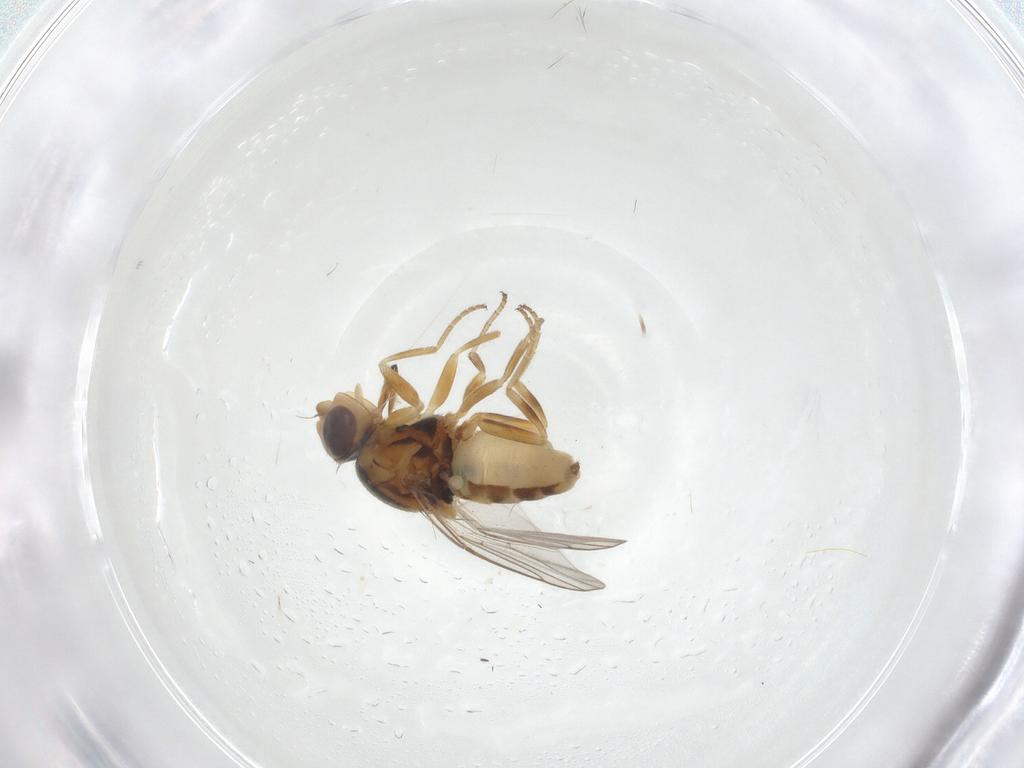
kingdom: Animalia
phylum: Arthropoda
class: Insecta
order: Diptera
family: Chloropidae
